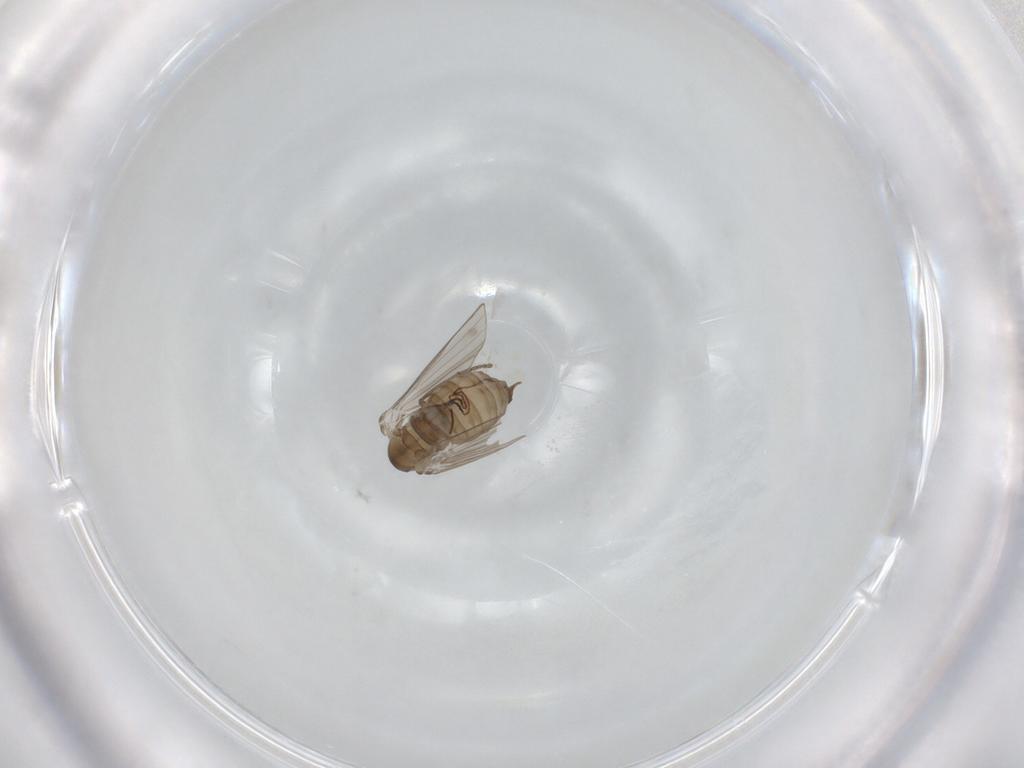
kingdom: Animalia
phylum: Arthropoda
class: Insecta
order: Diptera
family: Psychodidae
